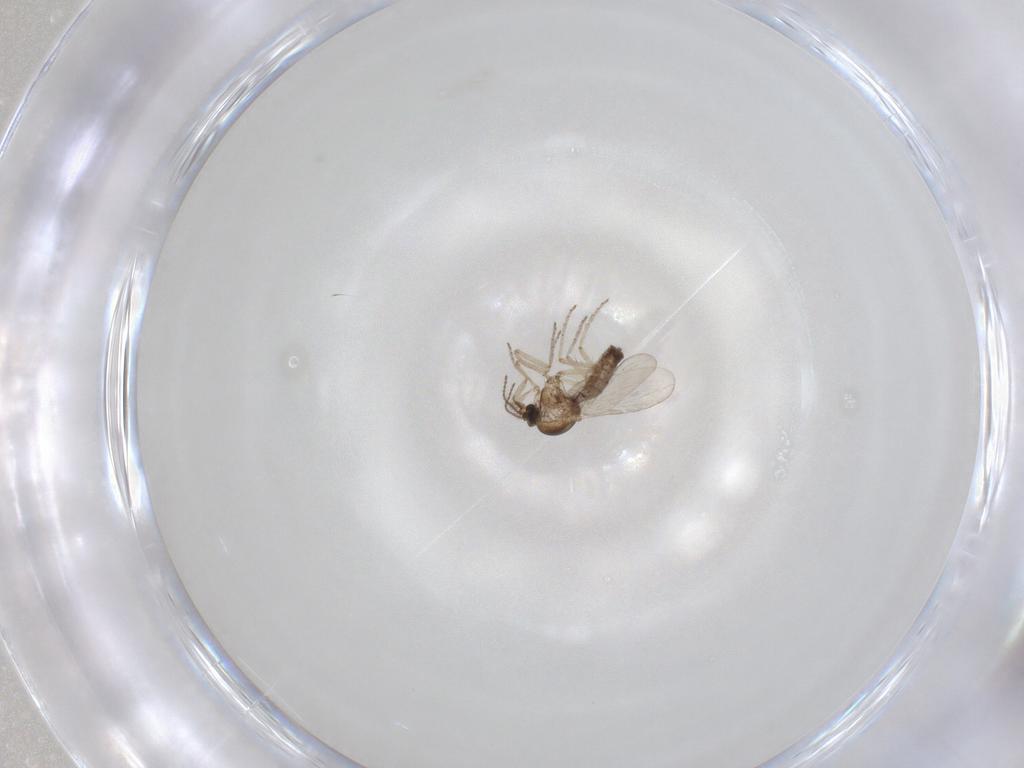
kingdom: Animalia
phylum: Arthropoda
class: Insecta
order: Diptera
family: Ceratopogonidae
